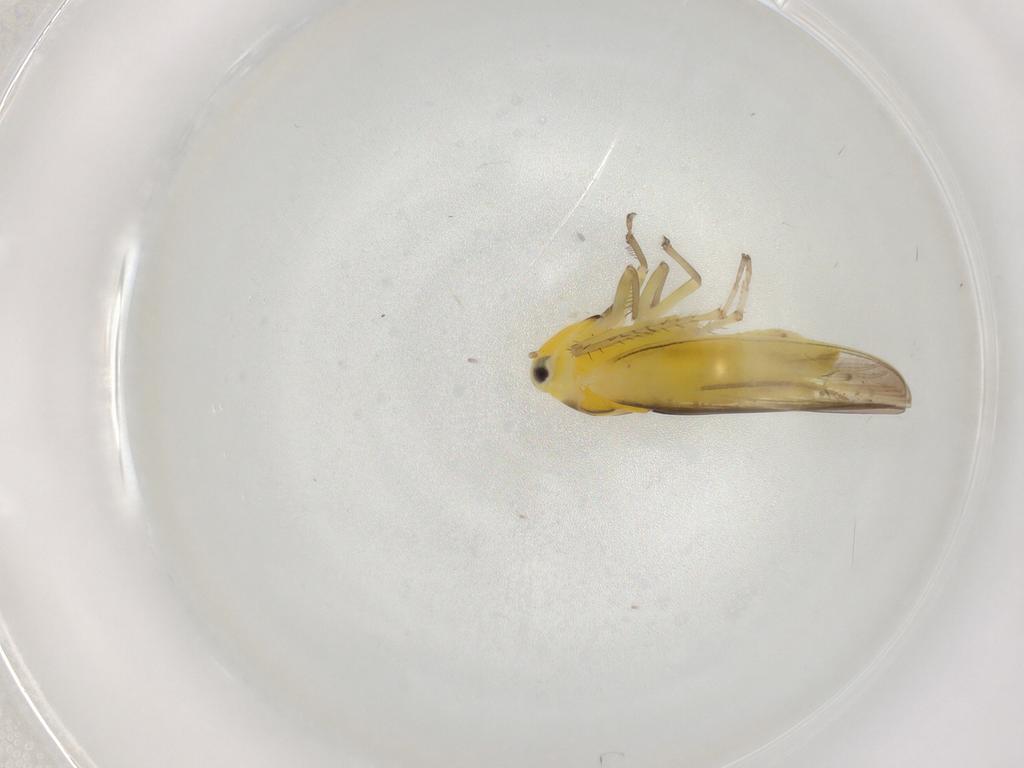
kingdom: Animalia
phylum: Arthropoda
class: Insecta
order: Hemiptera
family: Cicadellidae
